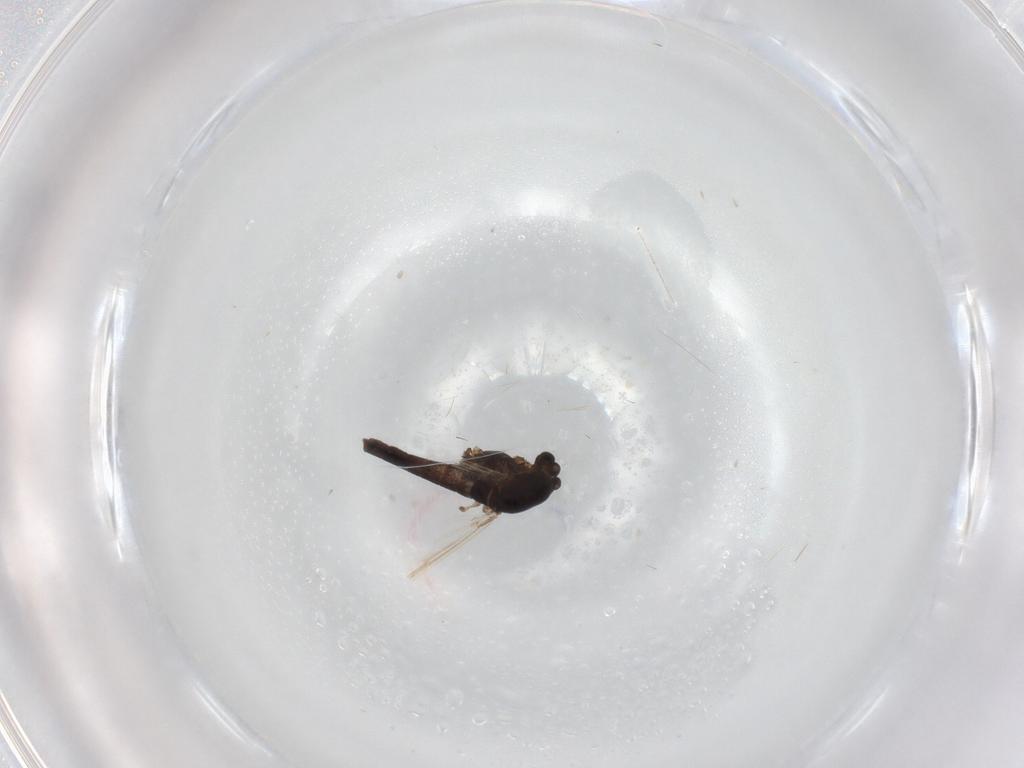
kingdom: Animalia
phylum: Arthropoda
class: Insecta
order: Diptera
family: Chironomidae
